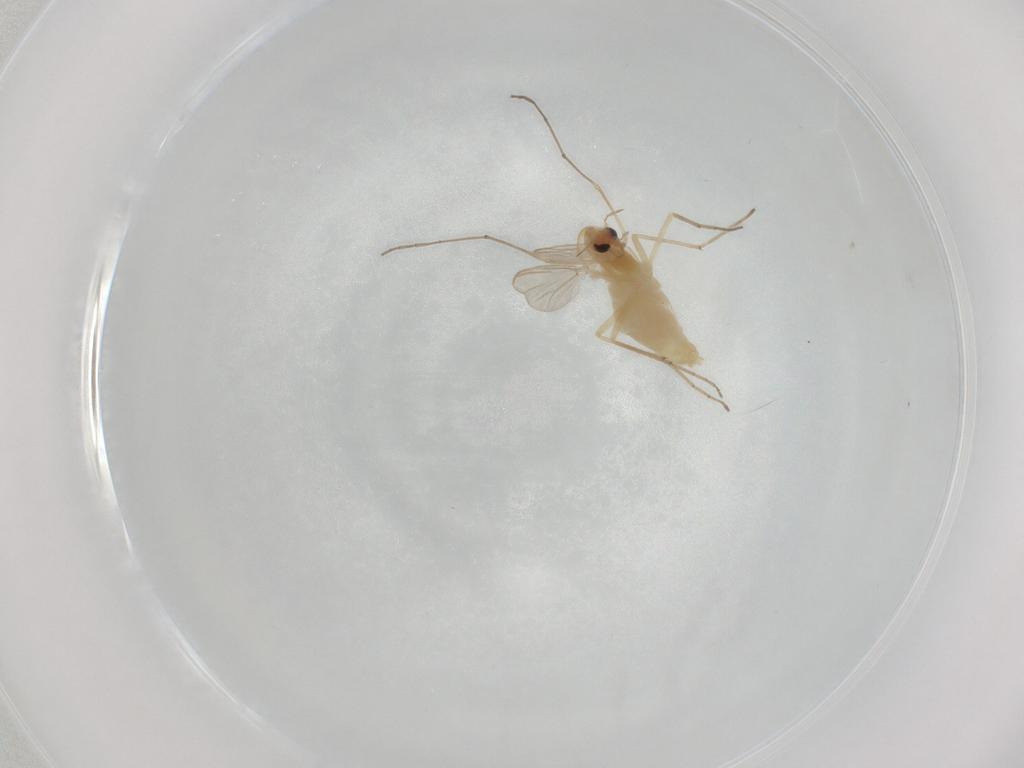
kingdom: Animalia
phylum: Arthropoda
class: Insecta
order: Diptera
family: Chironomidae
